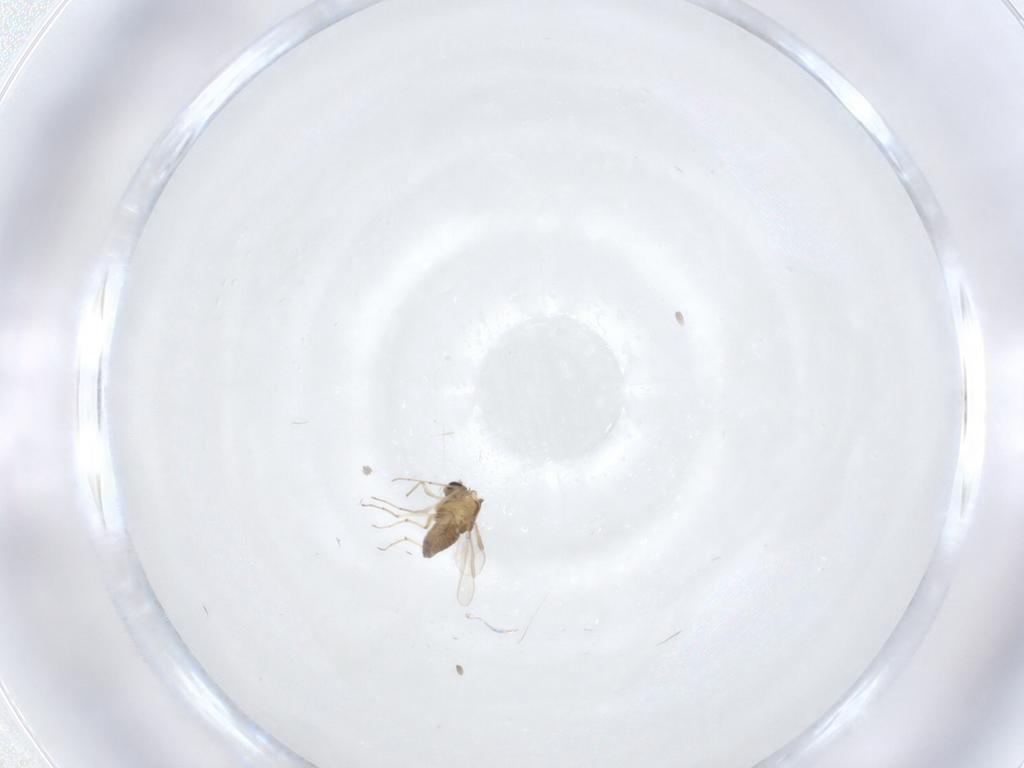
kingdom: Animalia
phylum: Arthropoda
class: Insecta
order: Diptera
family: Chironomidae
